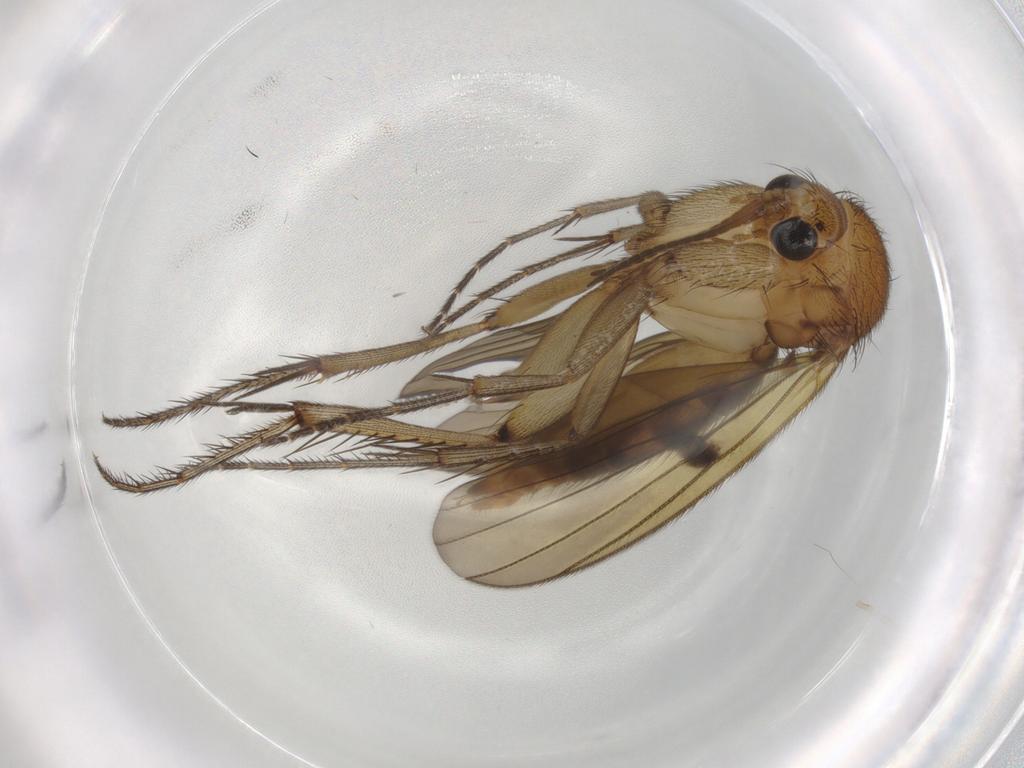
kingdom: Animalia
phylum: Arthropoda
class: Insecta
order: Diptera
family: Mycetophilidae
